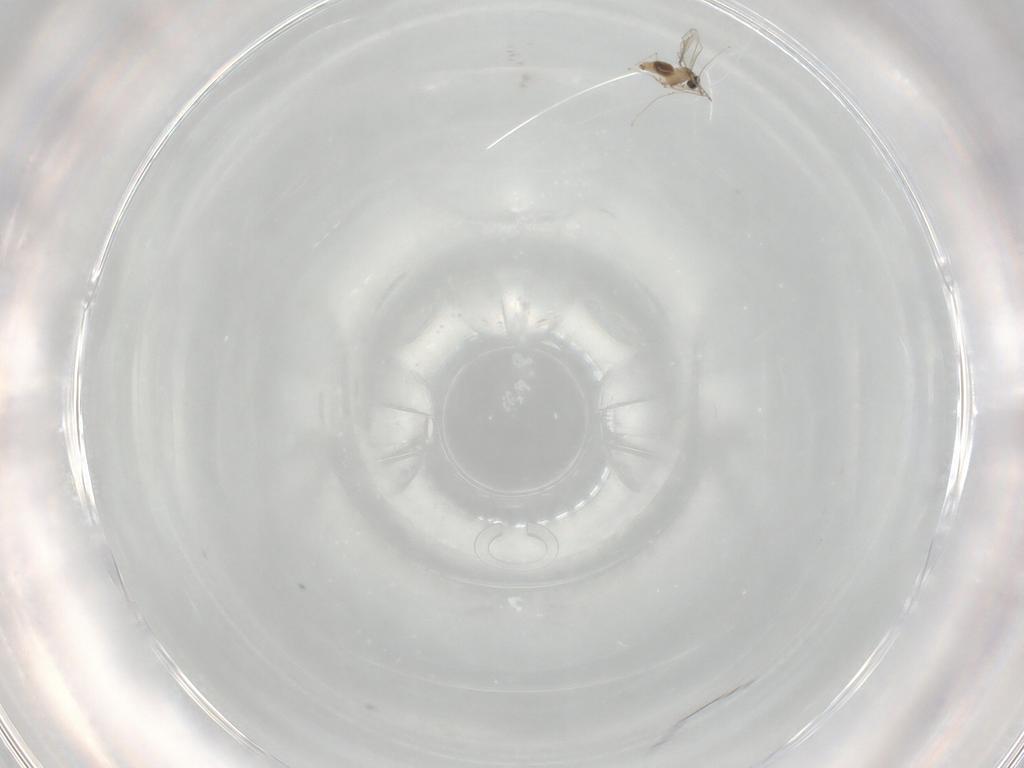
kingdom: Animalia
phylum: Arthropoda
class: Insecta
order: Diptera
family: Cecidomyiidae
